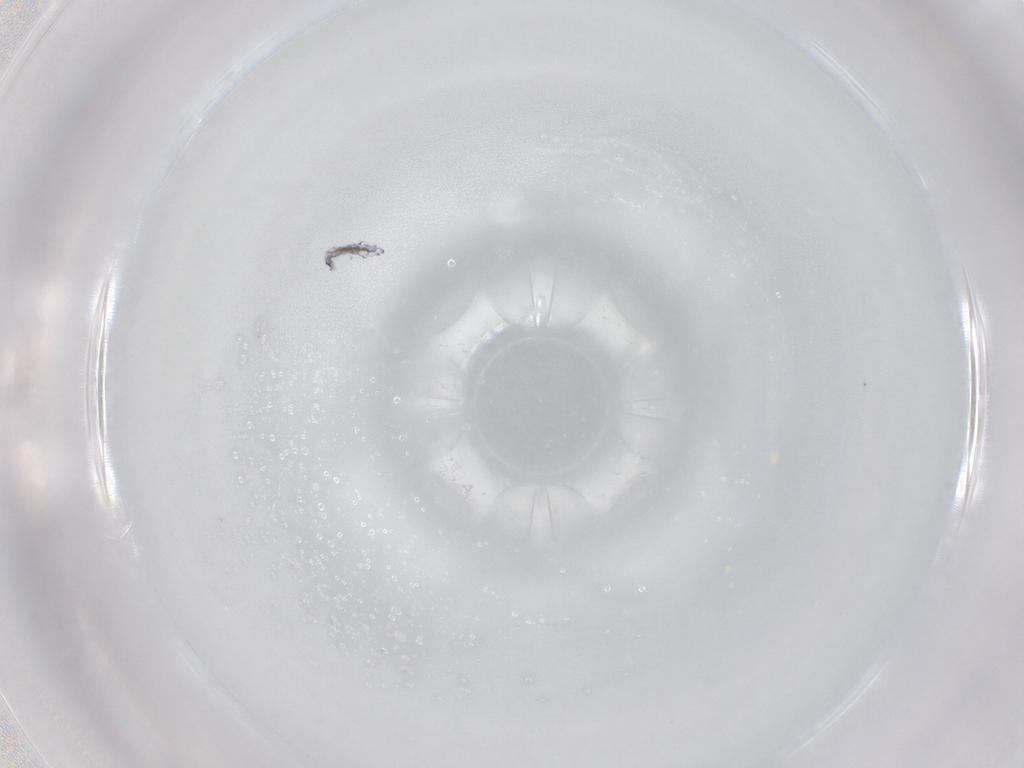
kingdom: Animalia
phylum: Arthropoda
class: Collembola
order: Entomobryomorpha
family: Entomobryidae
